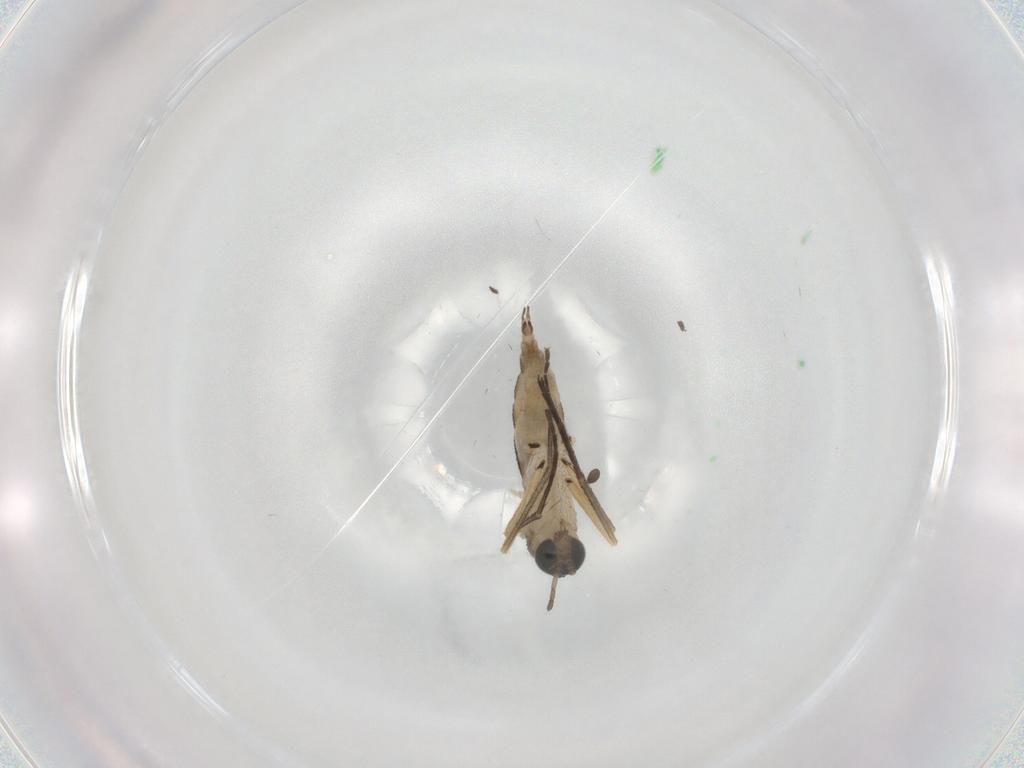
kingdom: Animalia
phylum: Arthropoda
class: Insecta
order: Diptera
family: Sciaridae
